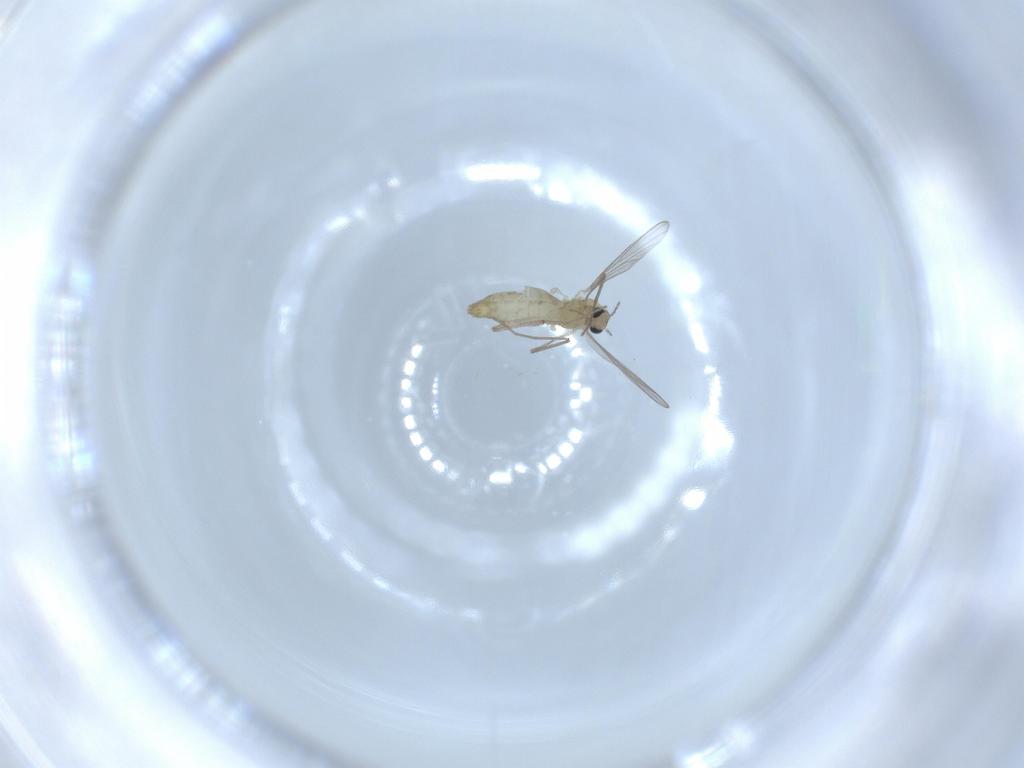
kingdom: Animalia
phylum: Arthropoda
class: Insecta
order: Diptera
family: Chironomidae
